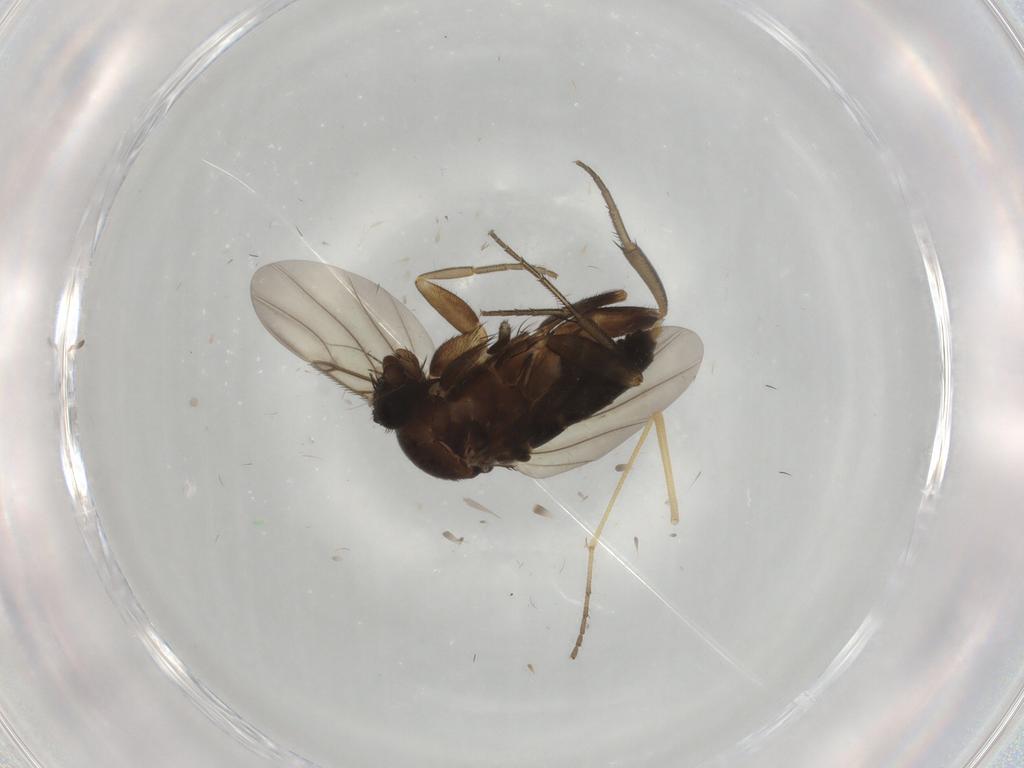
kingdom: Animalia
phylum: Arthropoda
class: Insecta
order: Diptera
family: Phoridae
